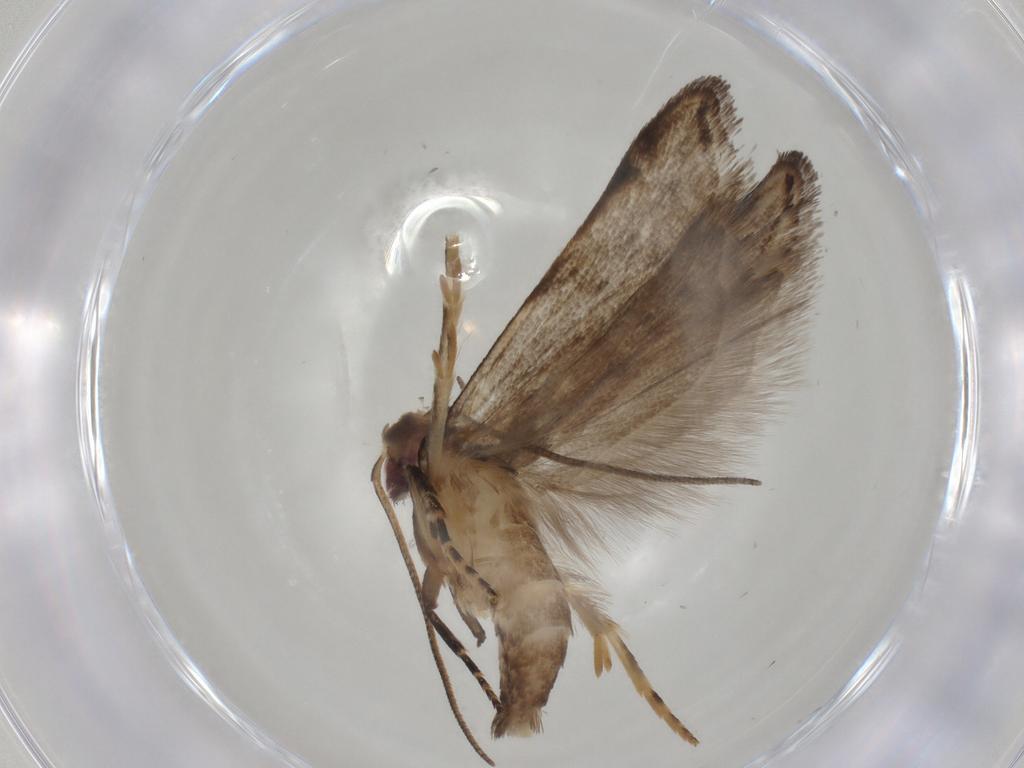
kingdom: Animalia
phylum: Arthropoda
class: Insecta
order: Lepidoptera
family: Gelechiidae
